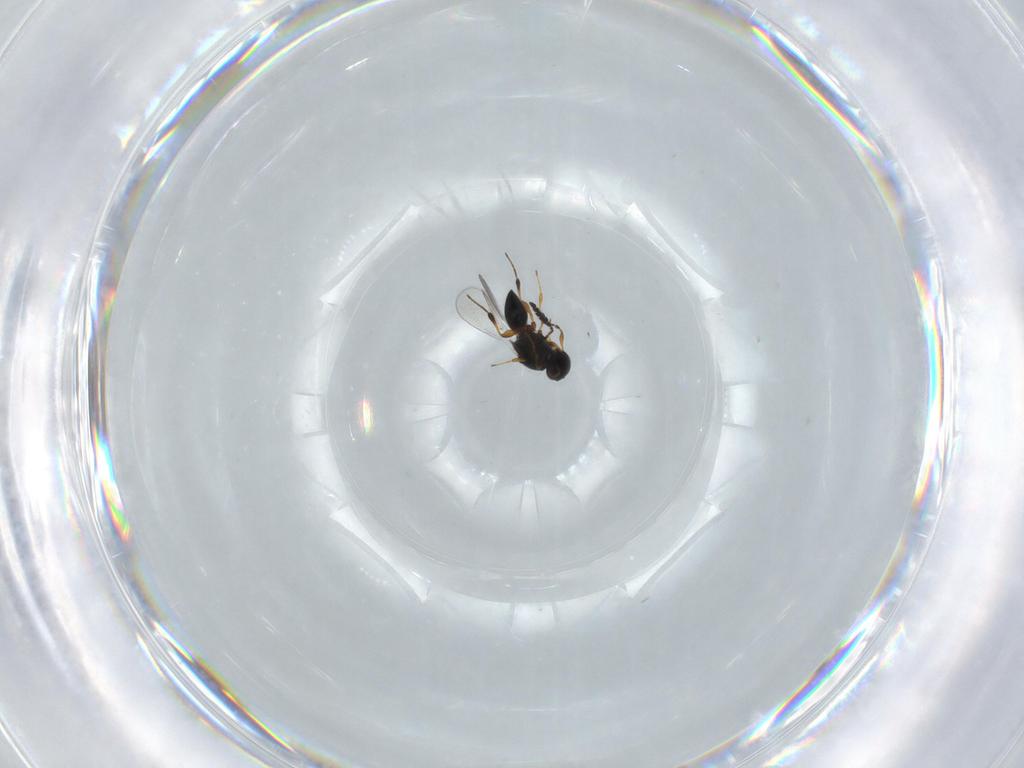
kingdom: Animalia
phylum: Arthropoda
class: Insecta
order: Hymenoptera
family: Platygastridae
